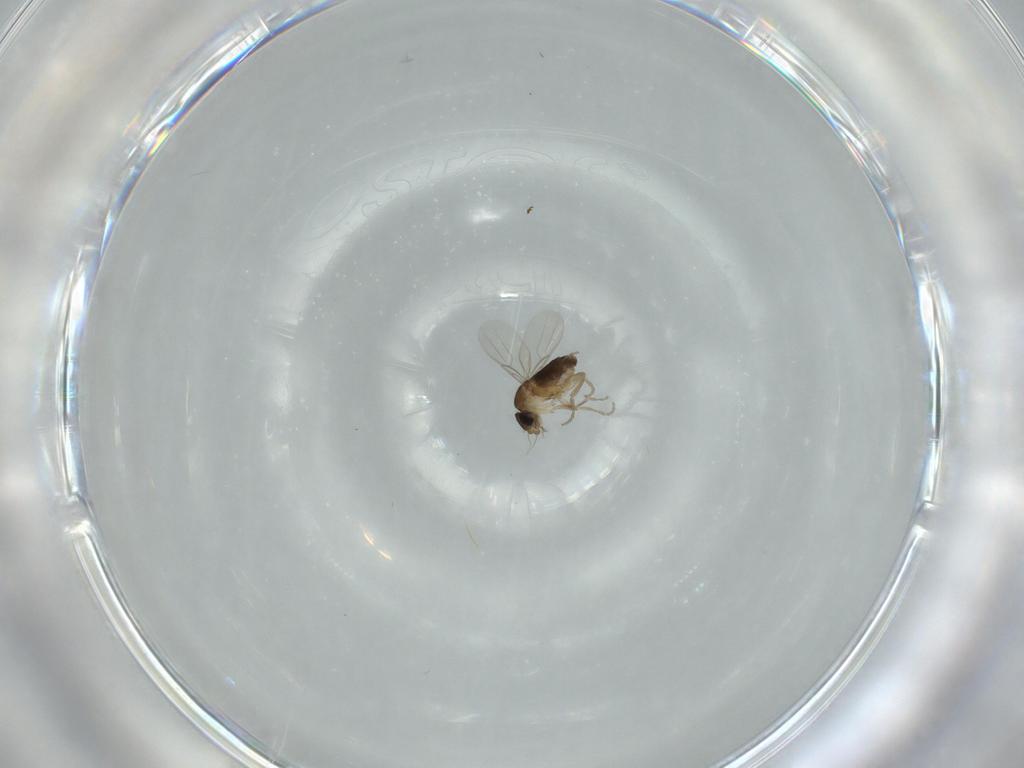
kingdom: Animalia
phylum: Arthropoda
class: Insecta
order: Diptera
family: Phoridae
